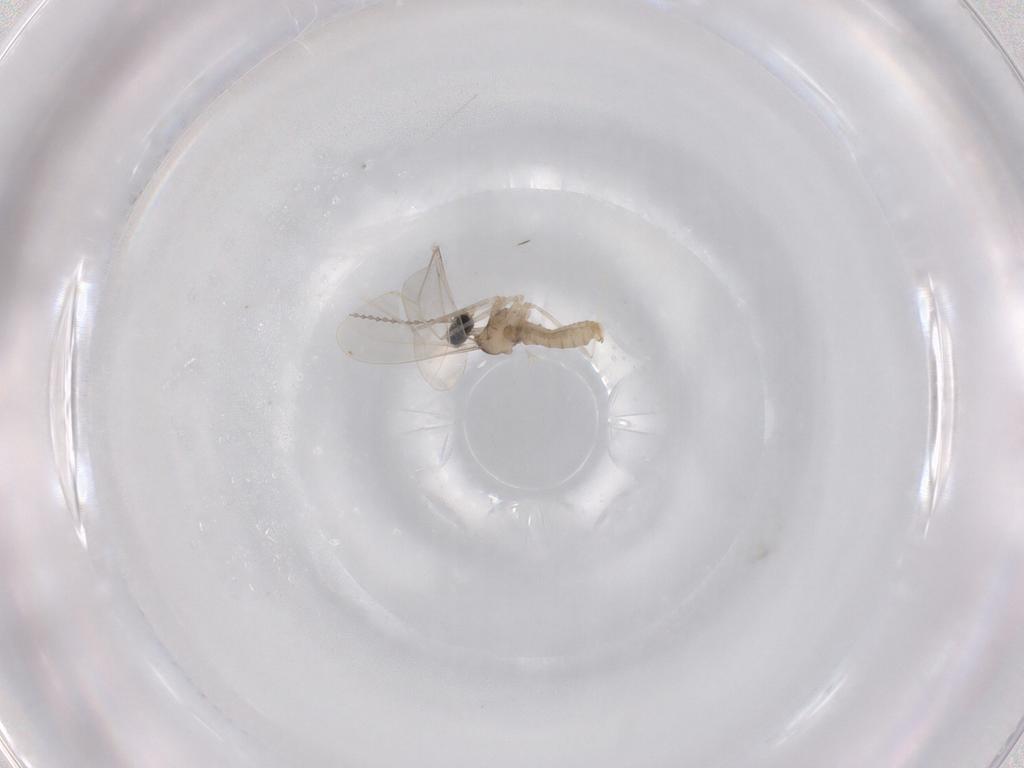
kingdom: Animalia
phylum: Arthropoda
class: Insecta
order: Diptera
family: Cecidomyiidae
